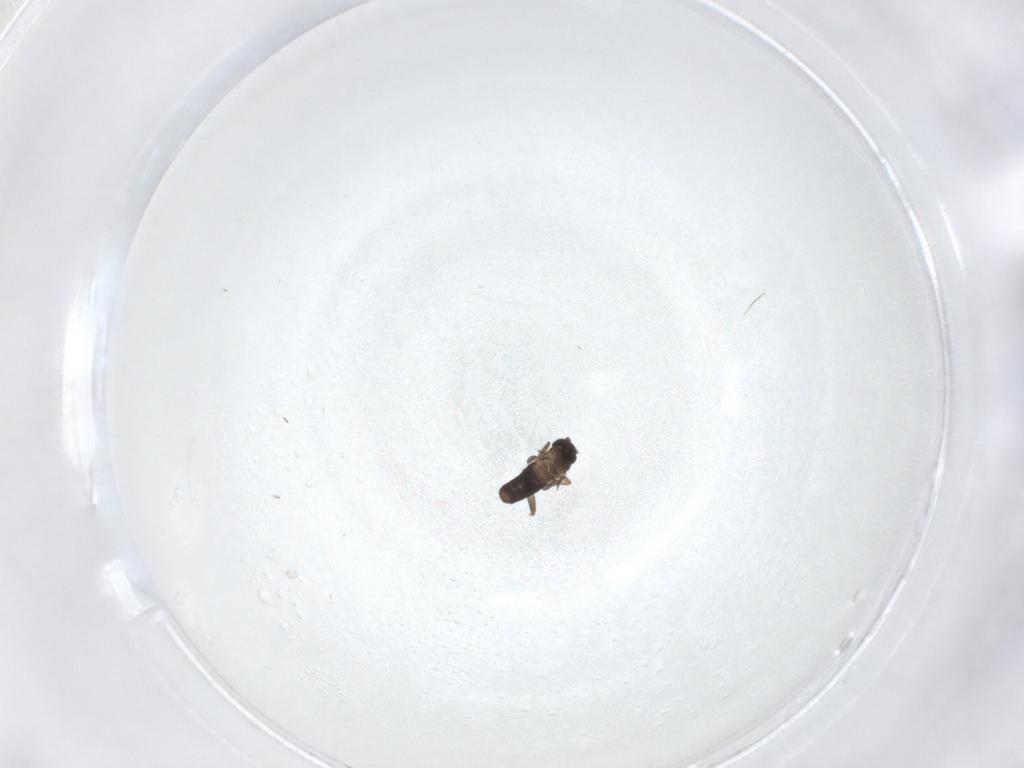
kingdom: Animalia
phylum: Arthropoda
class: Insecta
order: Diptera
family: Phoridae
